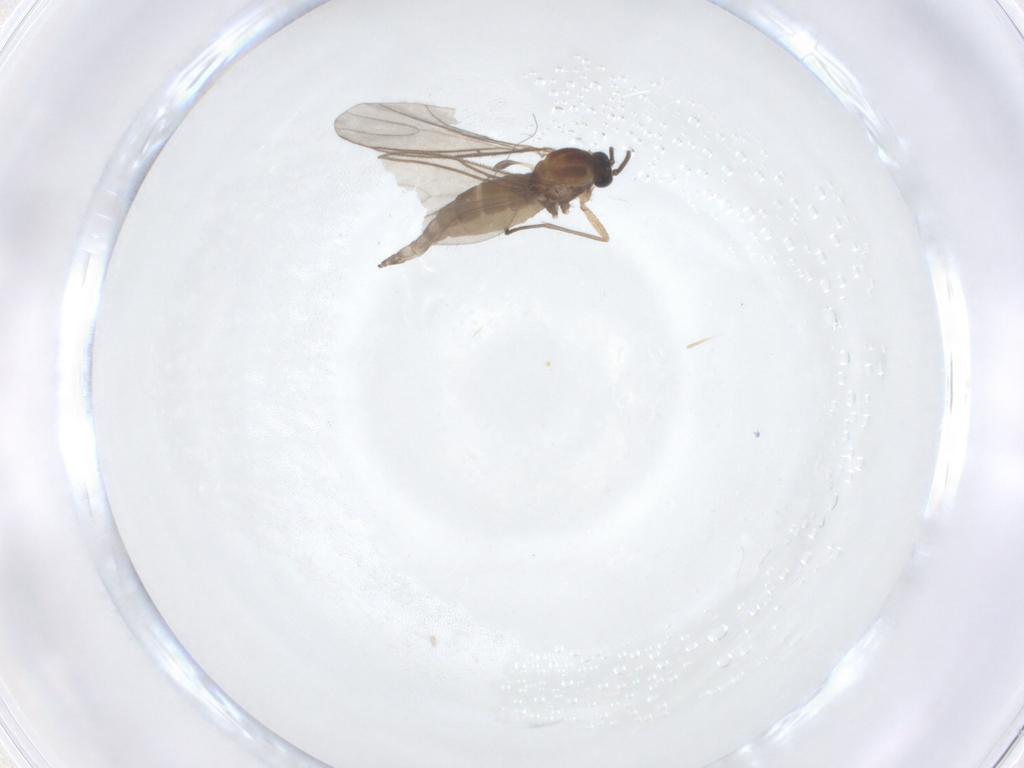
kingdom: Animalia
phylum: Arthropoda
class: Insecta
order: Diptera
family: Sciaridae
